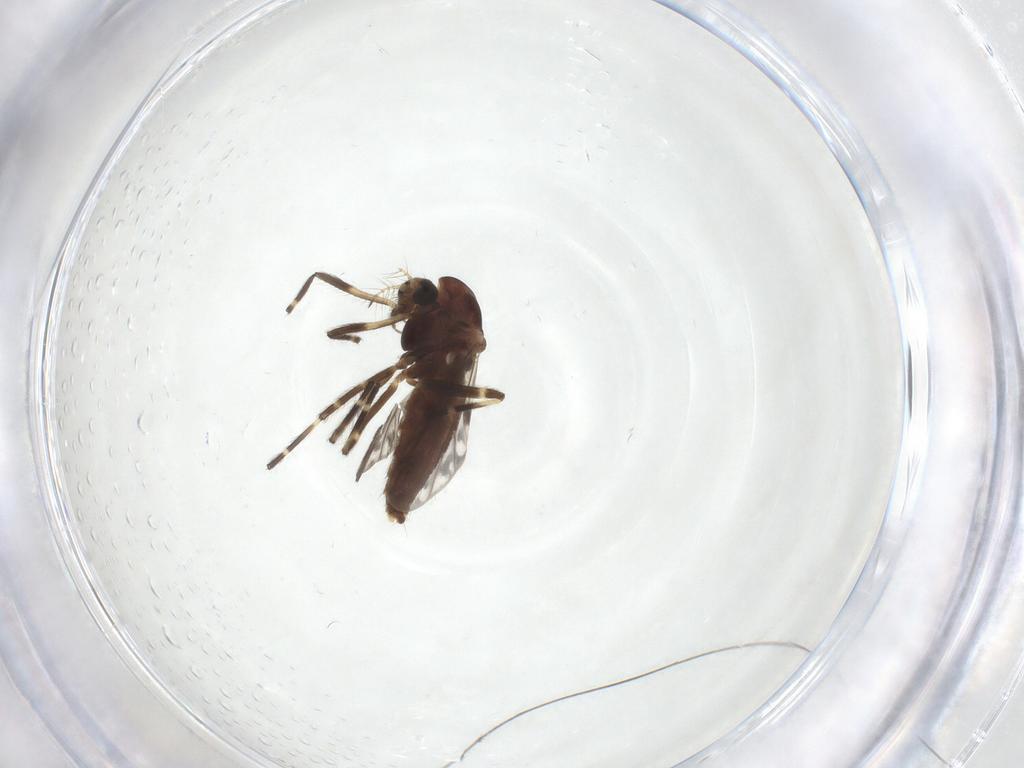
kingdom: Animalia
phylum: Arthropoda
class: Insecta
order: Diptera
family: Chironomidae
